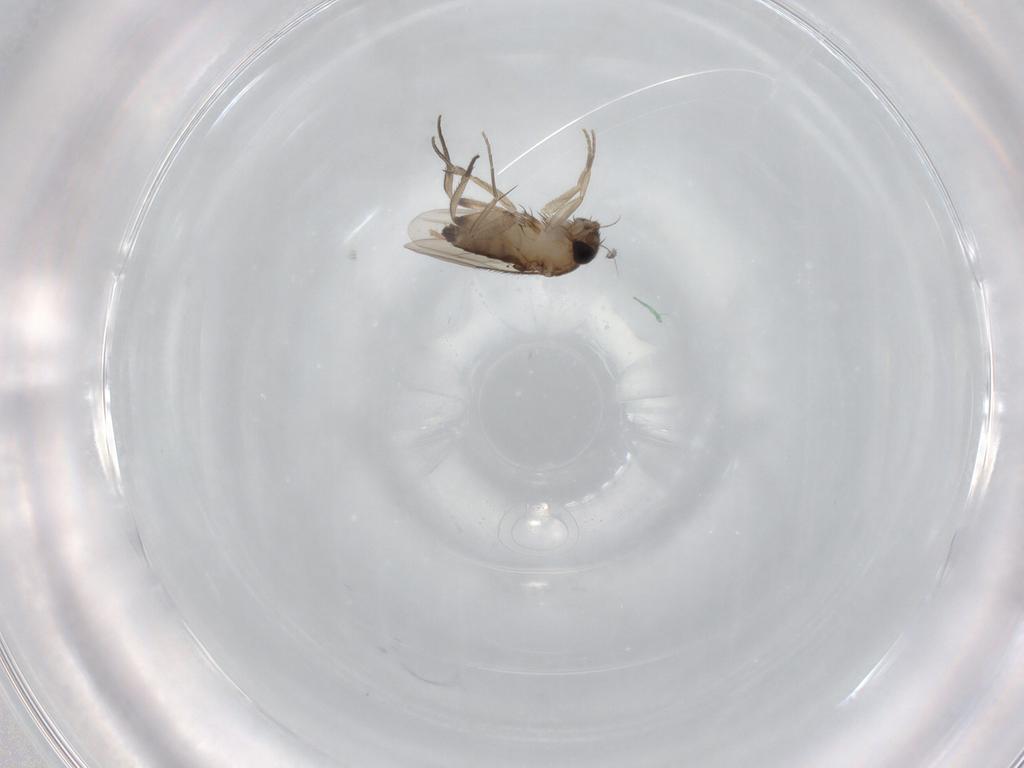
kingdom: Animalia
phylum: Arthropoda
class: Insecta
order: Diptera
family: Phoridae
